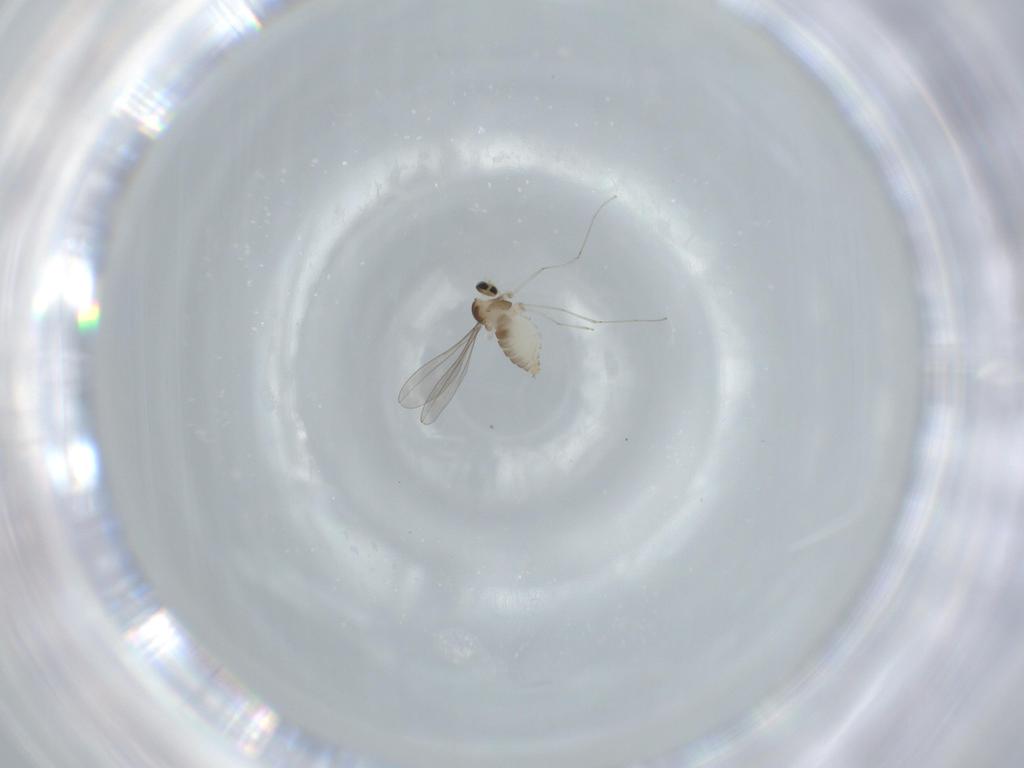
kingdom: Animalia
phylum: Arthropoda
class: Insecta
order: Diptera
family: Cecidomyiidae
